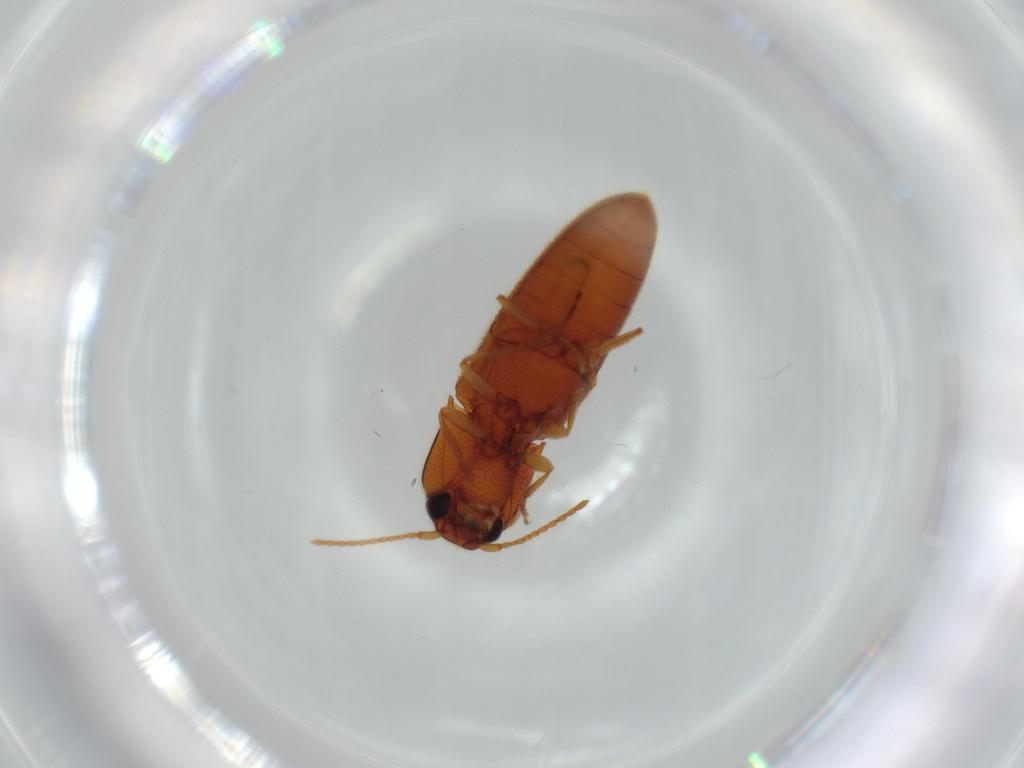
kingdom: Animalia
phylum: Arthropoda
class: Insecta
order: Coleoptera
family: Elateridae
